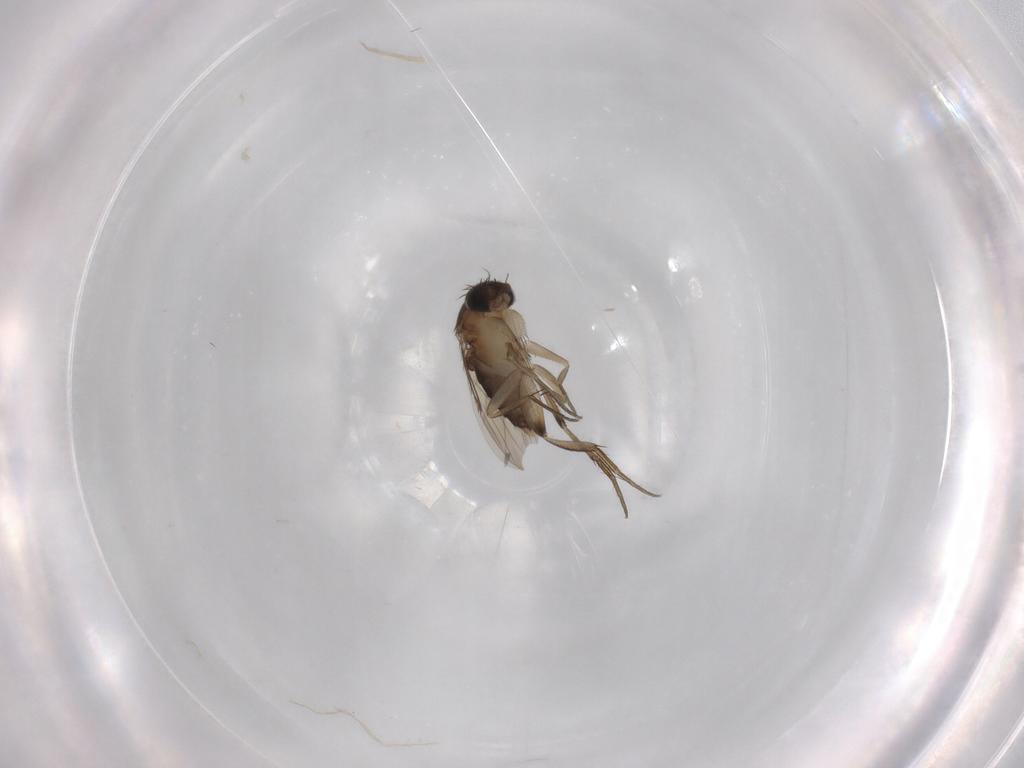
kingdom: Animalia
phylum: Arthropoda
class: Insecta
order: Diptera
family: Phoridae
